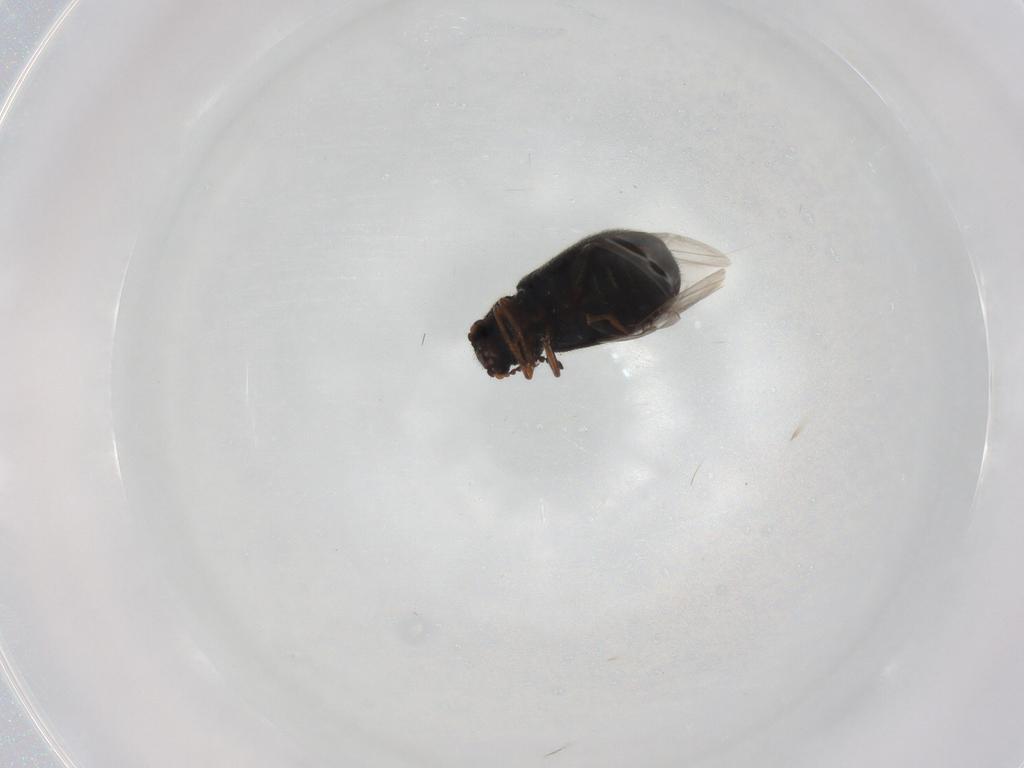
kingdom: Animalia
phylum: Arthropoda
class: Insecta
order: Coleoptera
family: Melyridae
